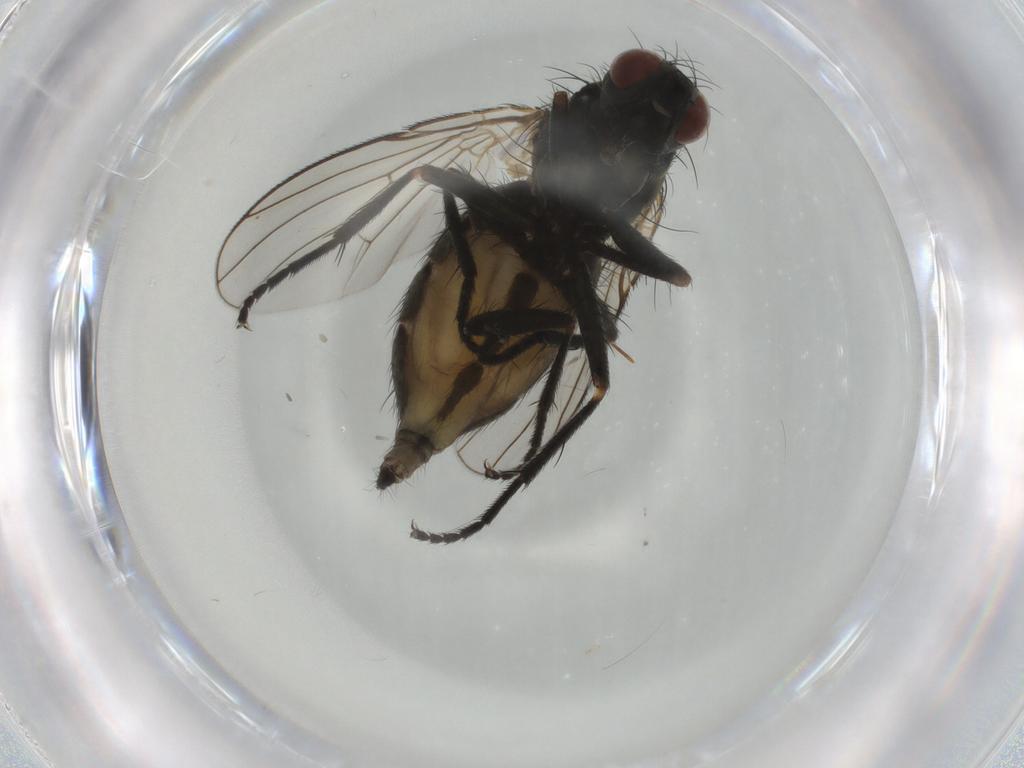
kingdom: Animalia
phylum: Arthropoda
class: Insecta
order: Diptera
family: Muscidae
